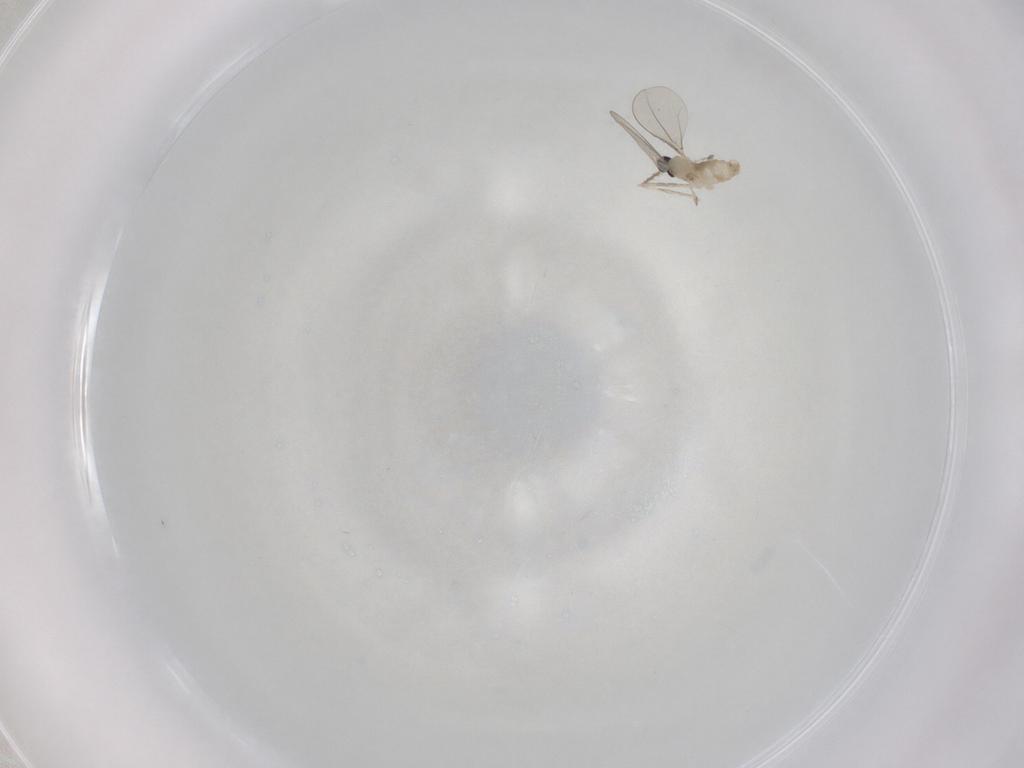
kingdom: Animalia
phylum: Arthropoda
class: Insecta
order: Diptera
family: Cecidomyiidae
